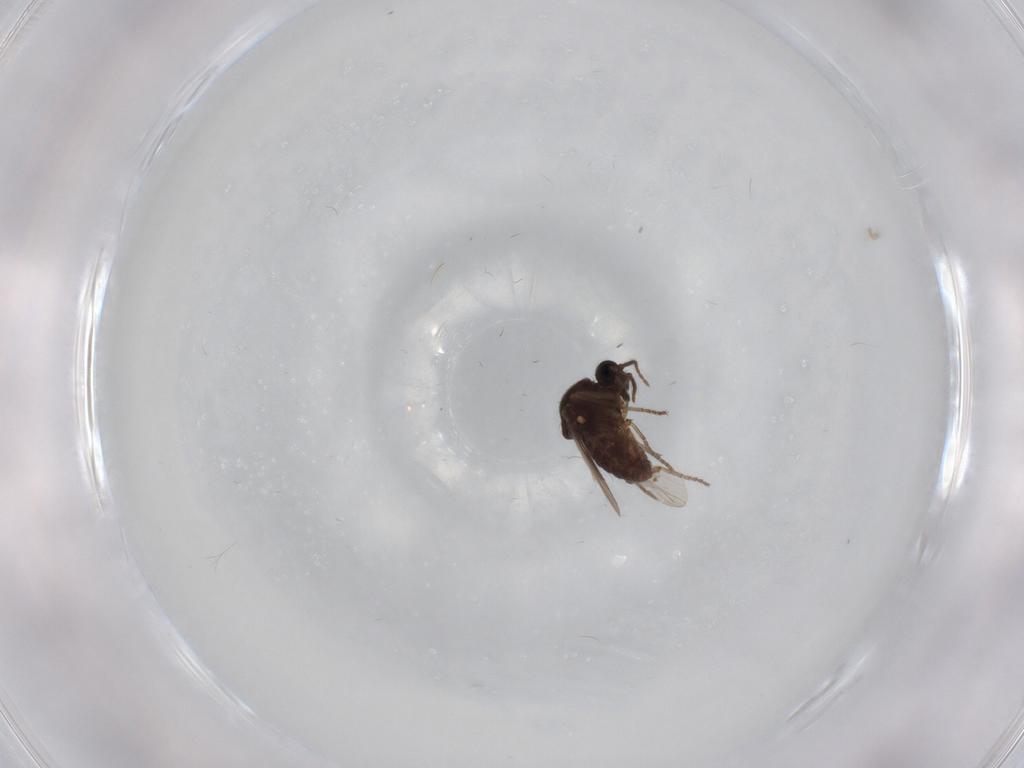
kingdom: Animalia
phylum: Arthropoda
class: Insecta
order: Diptera
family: Ceratopogonidae
